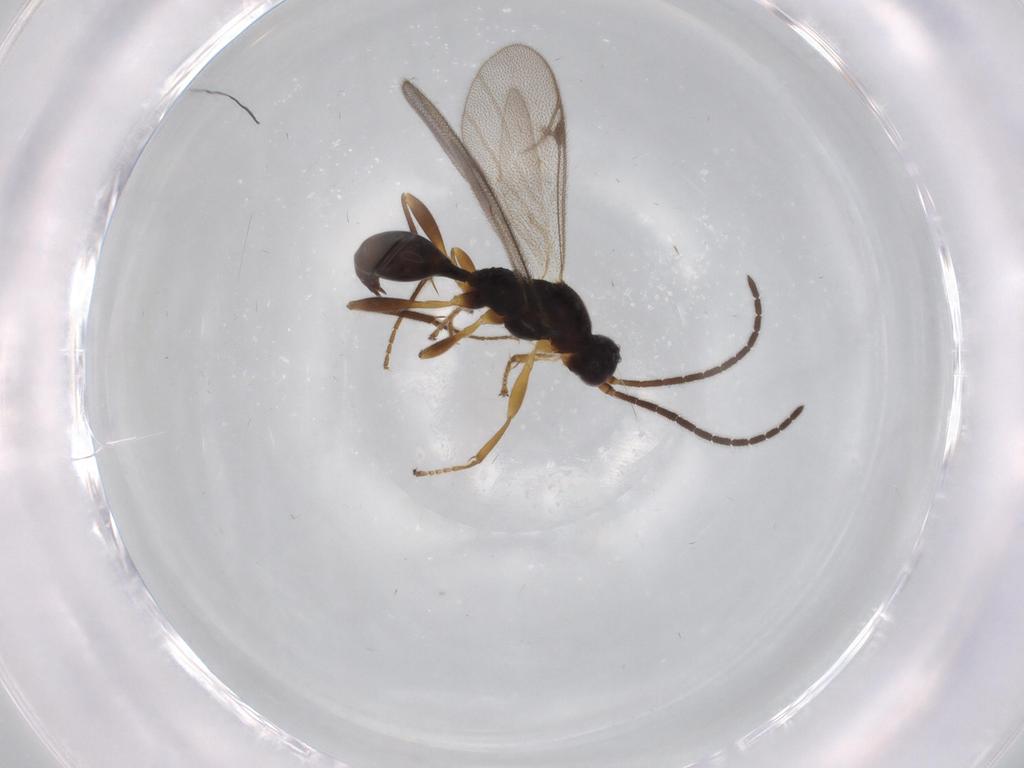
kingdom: Animalia
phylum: Arthropoda
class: Insecta
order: Hymenoptera
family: Proctotrupidae
